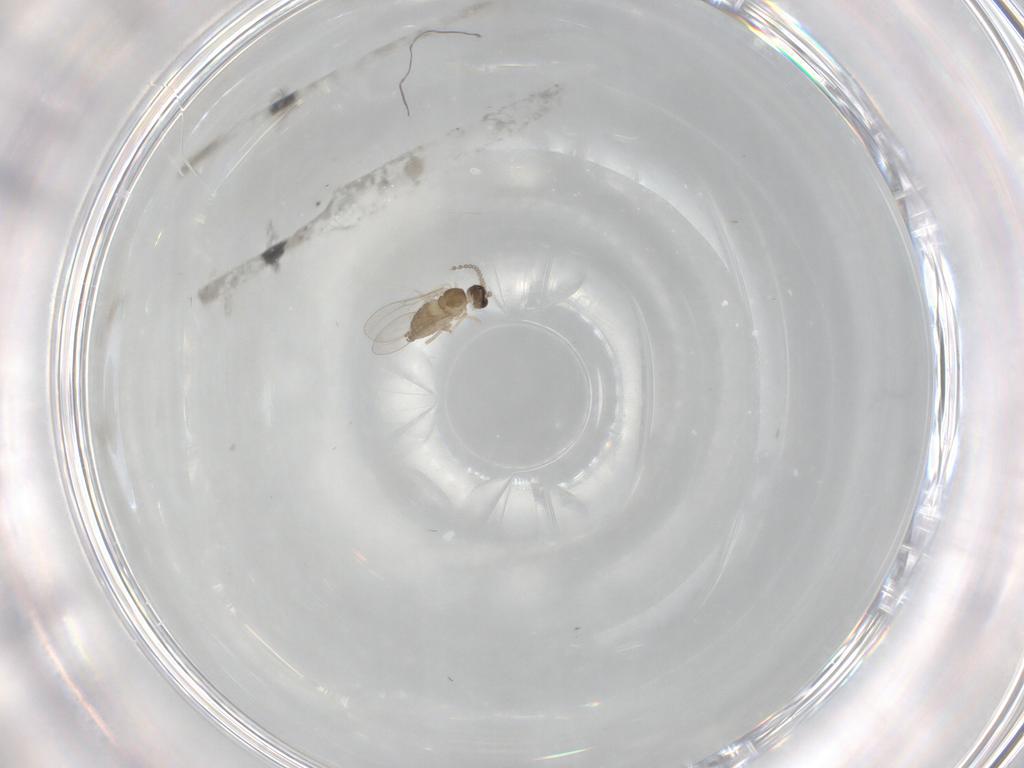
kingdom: Animalia
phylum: Arthropoda
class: Insecta
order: Diptera
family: Cecidomyiidae
